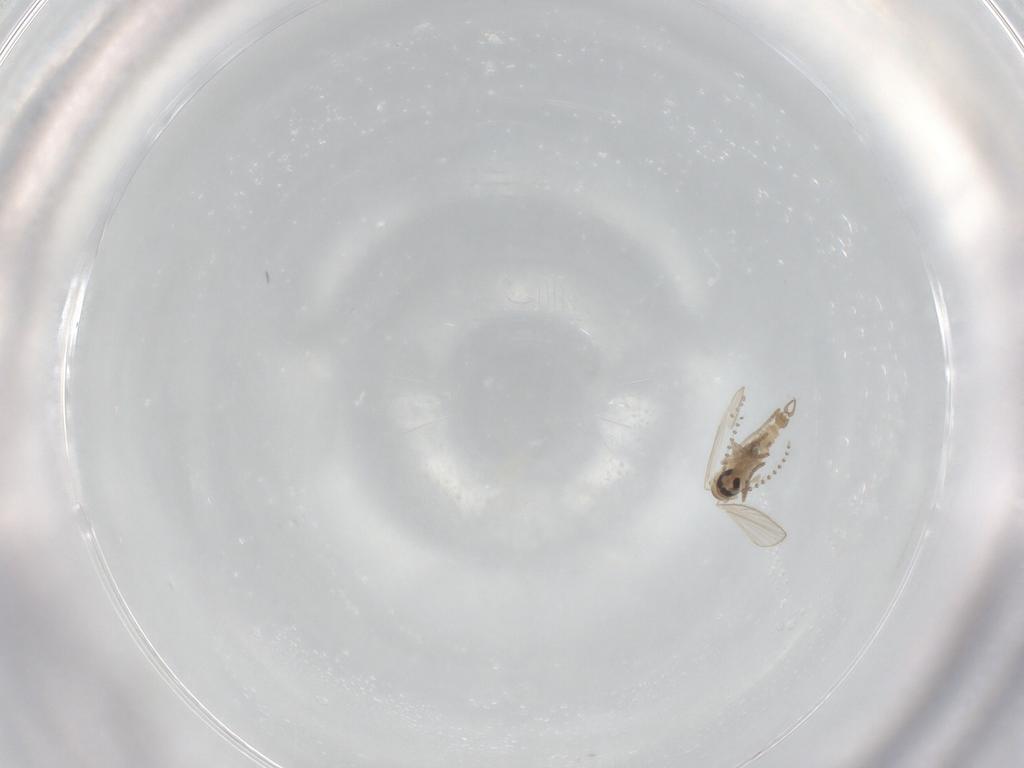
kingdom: Animalia
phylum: Arthropoda
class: Insecta
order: Diptera
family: Psychodidae
